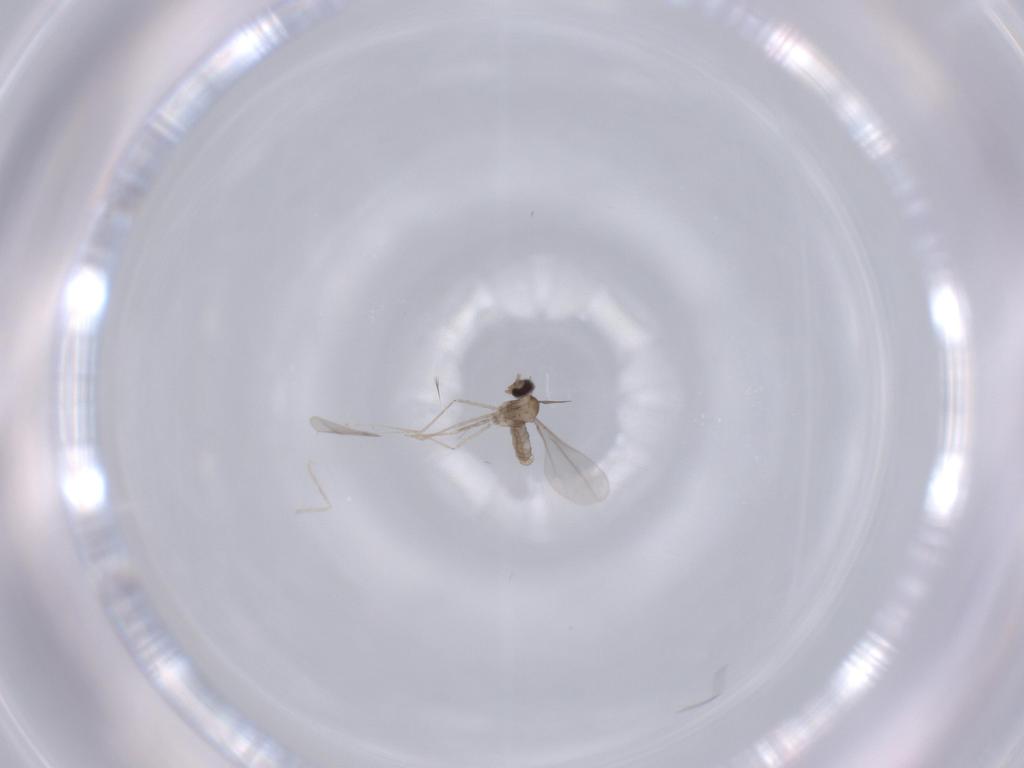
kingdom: Animalia
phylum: Arthropoda
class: Insecta
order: Diptera
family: Cecidomyiidae
